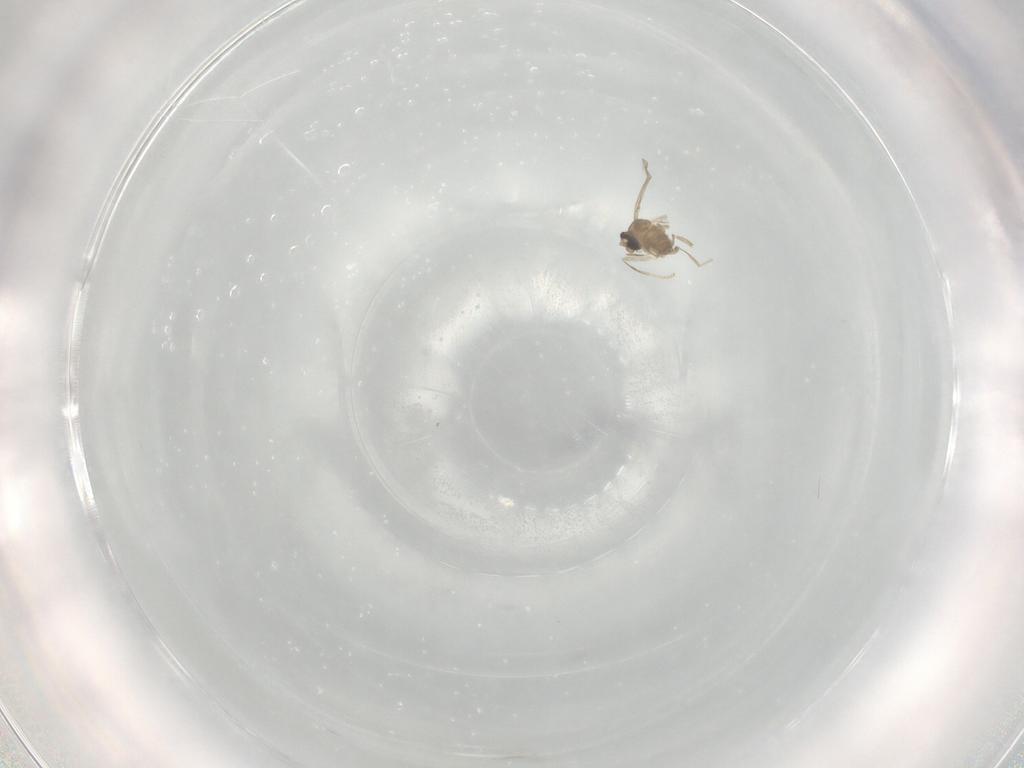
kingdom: Animalia
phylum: Arthropoda
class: Insecta
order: Diptera
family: Cecidomyiidae
